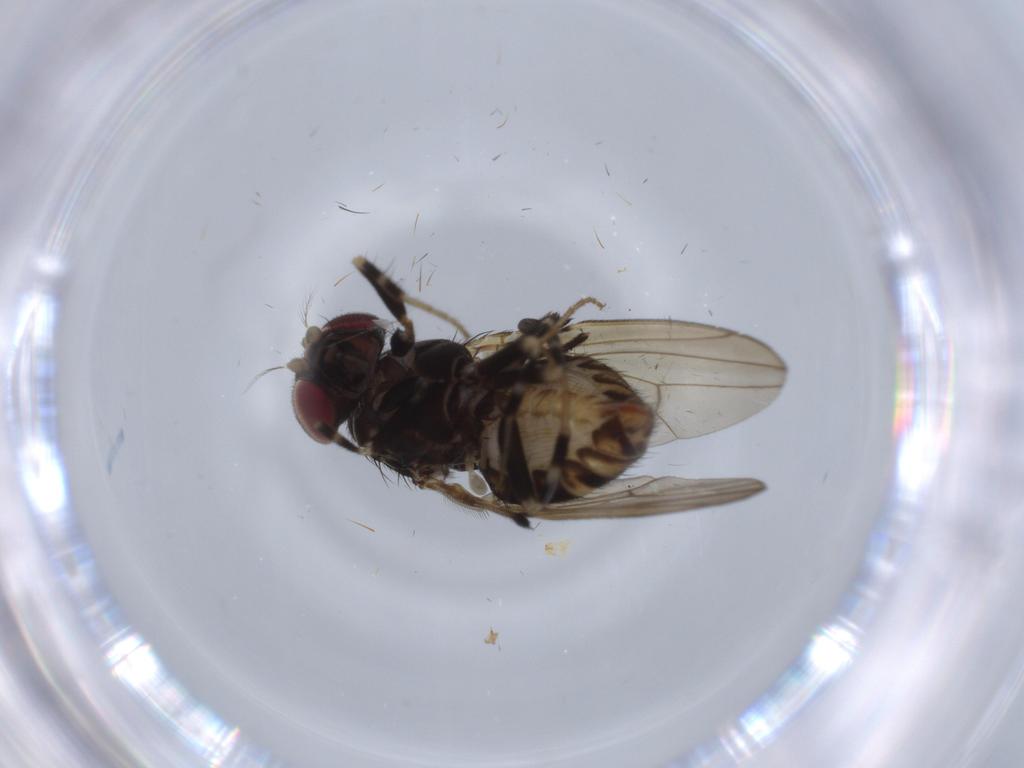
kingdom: Animalia
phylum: Arthropoda
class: Insecta
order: Diptera
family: Drosophilidae
